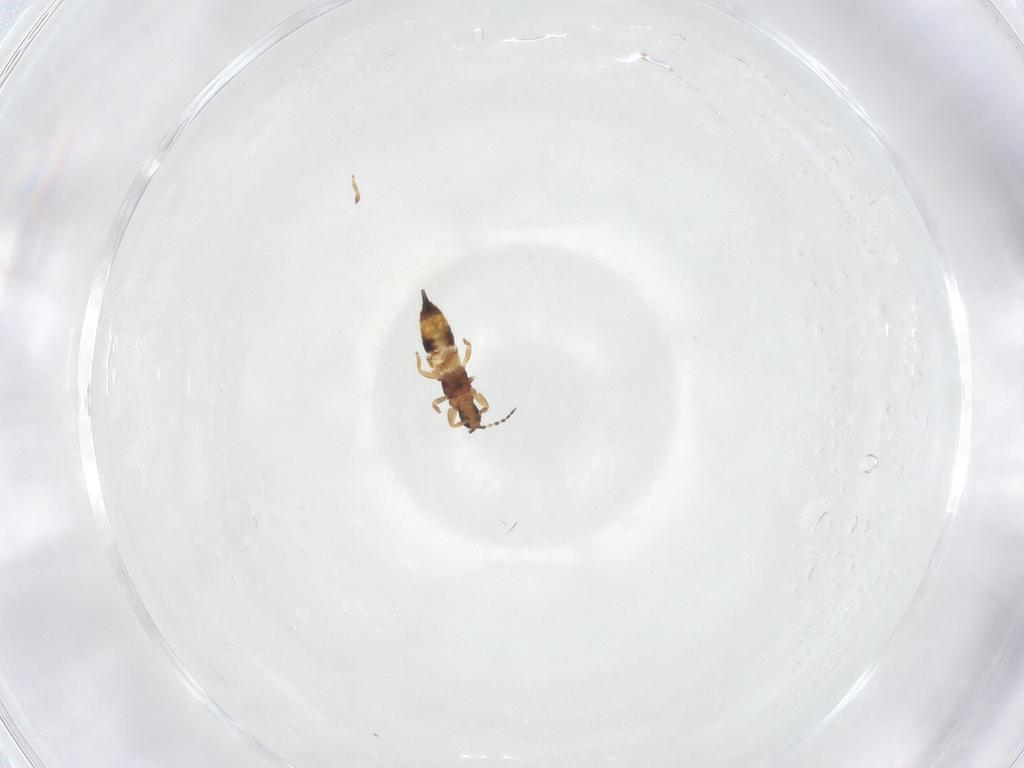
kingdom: Animalia
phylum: Arthropoda
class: Insecta
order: Thysanoptera
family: Phlaeothripidae
